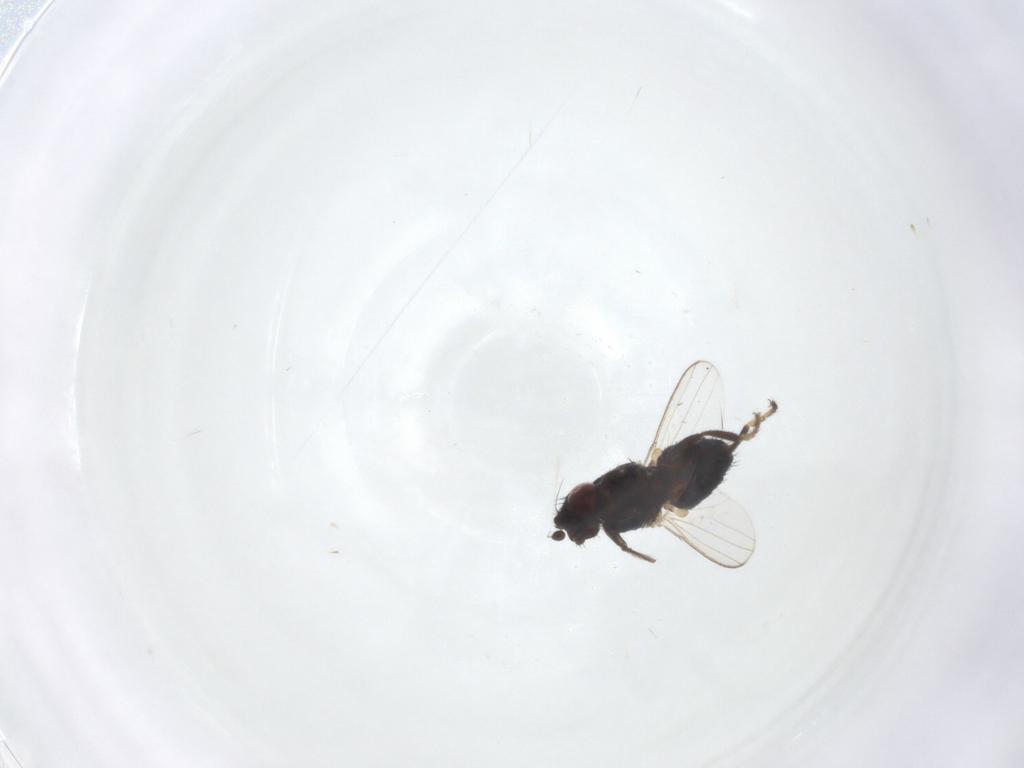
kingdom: Animalia
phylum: Arthropoda
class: Insecta
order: Diptera
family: Milichiidae
